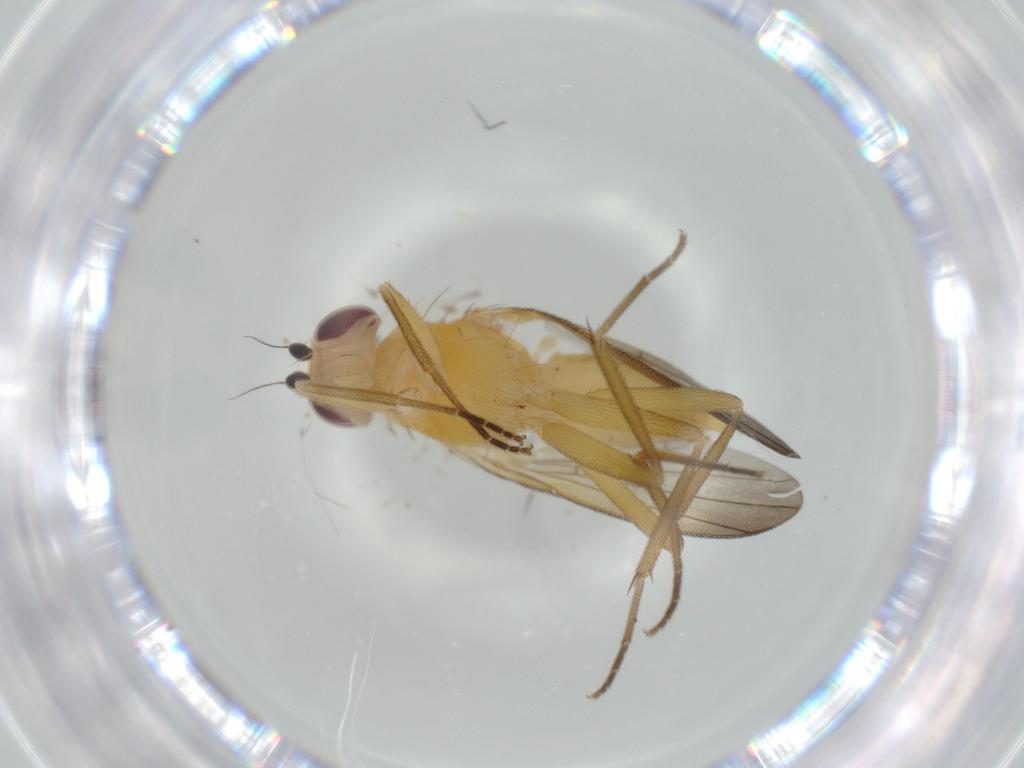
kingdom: Animalia
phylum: Arthropoda
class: Insecta
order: Diptera
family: Clusiidae
